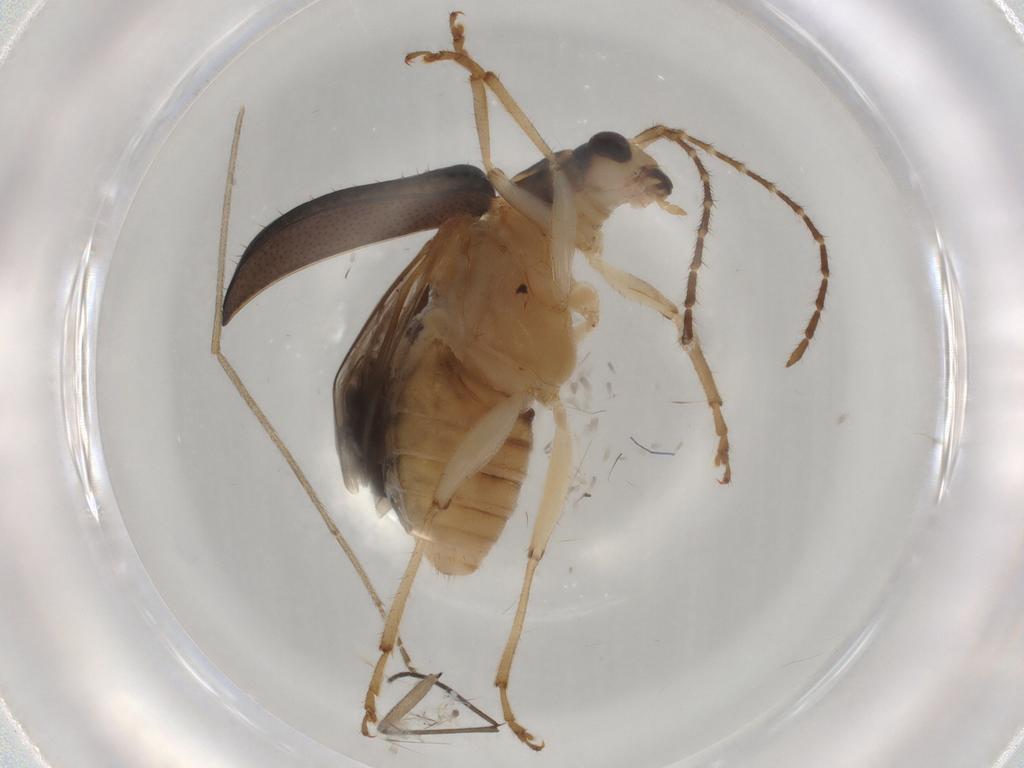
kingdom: Animalia
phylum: Arthropoda
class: Insecta
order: Coleoptera
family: Chrysomelidae
